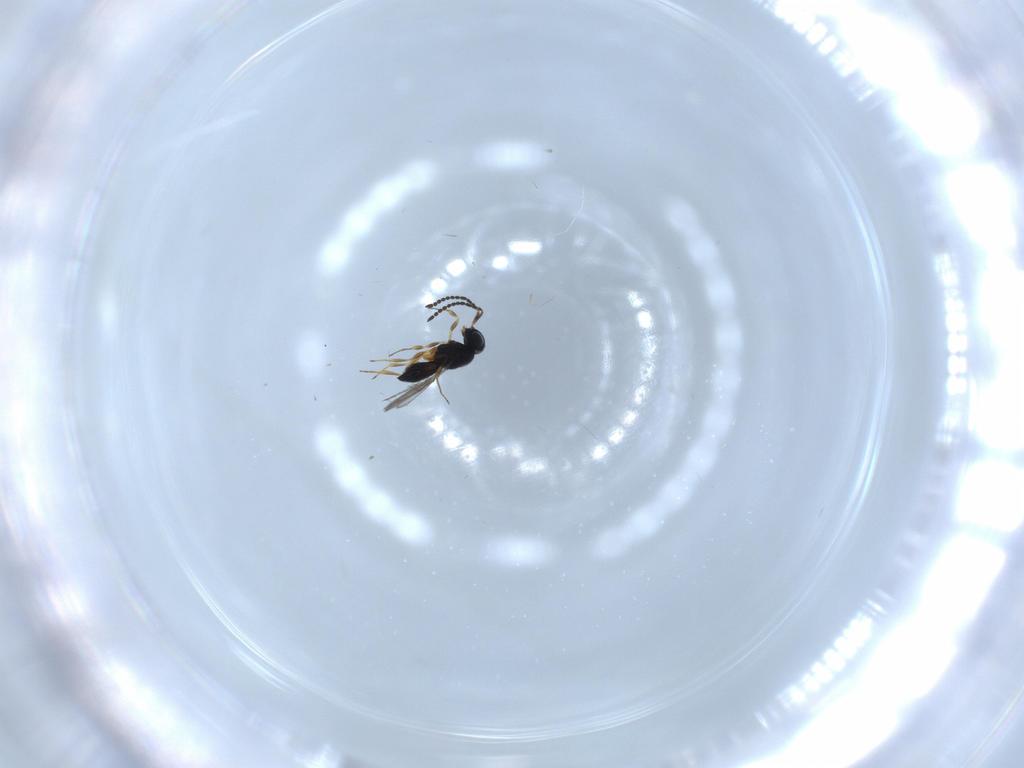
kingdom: Animalia
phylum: Arthropoda
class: Insecta
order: Hymenoptera
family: Scelionidae
